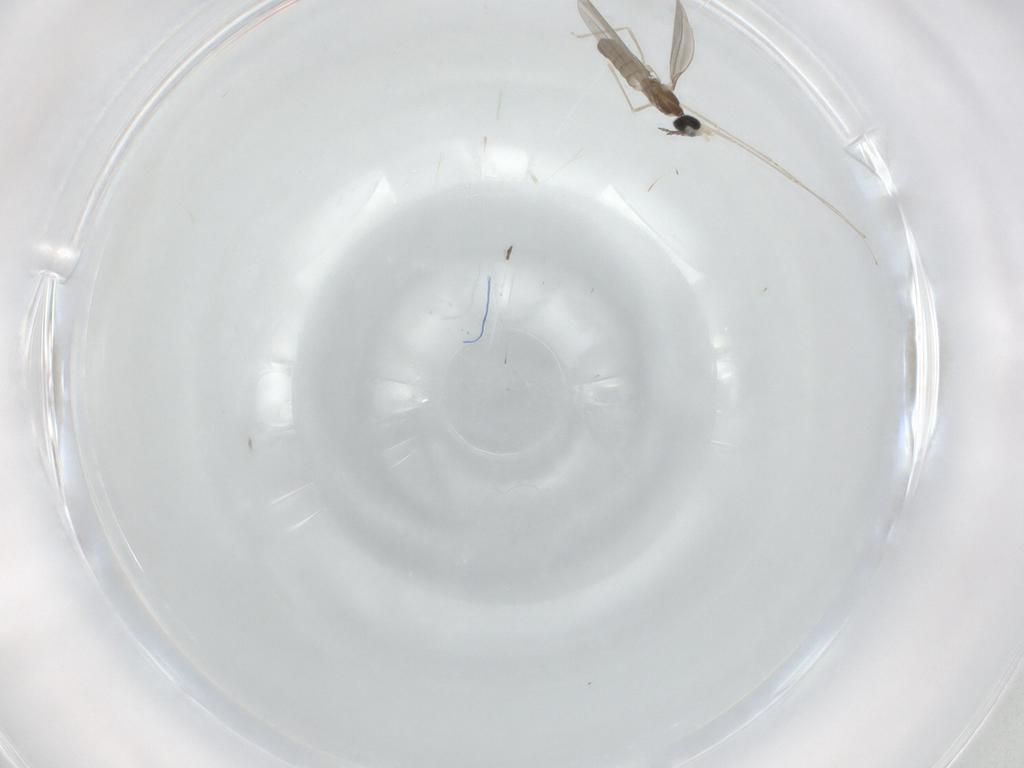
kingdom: Animalia
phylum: Arthropoda
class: Insecta
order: Diptera
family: Cecidomyiidae
